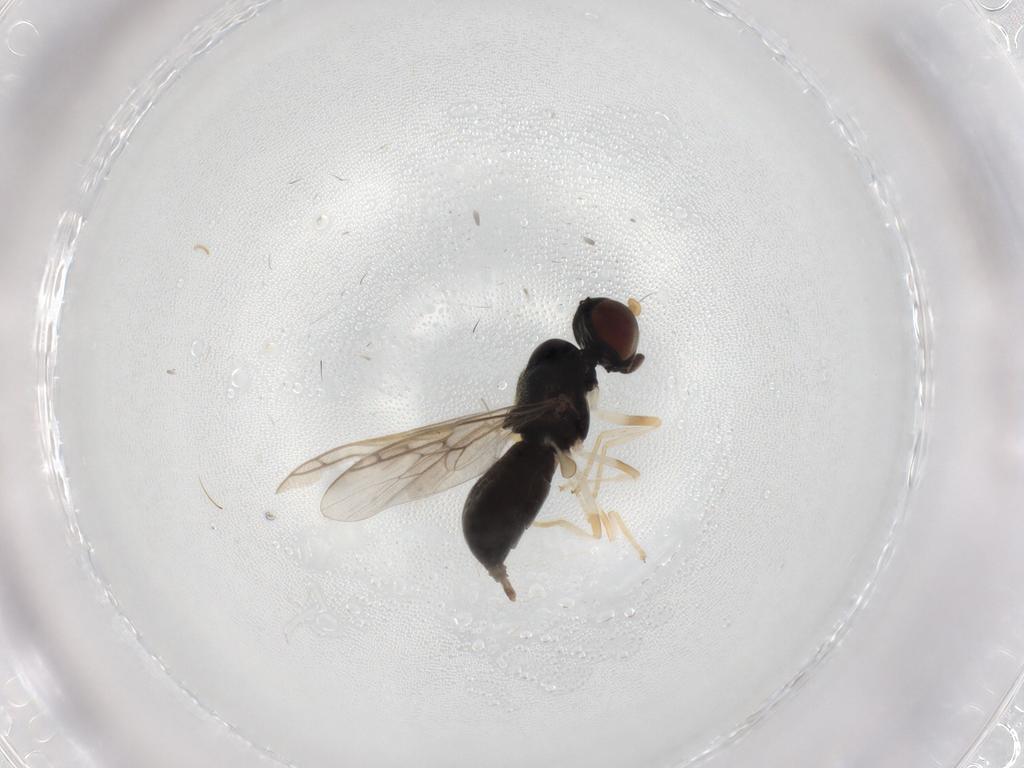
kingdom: Animalia
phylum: Arthropoda
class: Insecta
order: Diptera
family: Stratiomyidae
